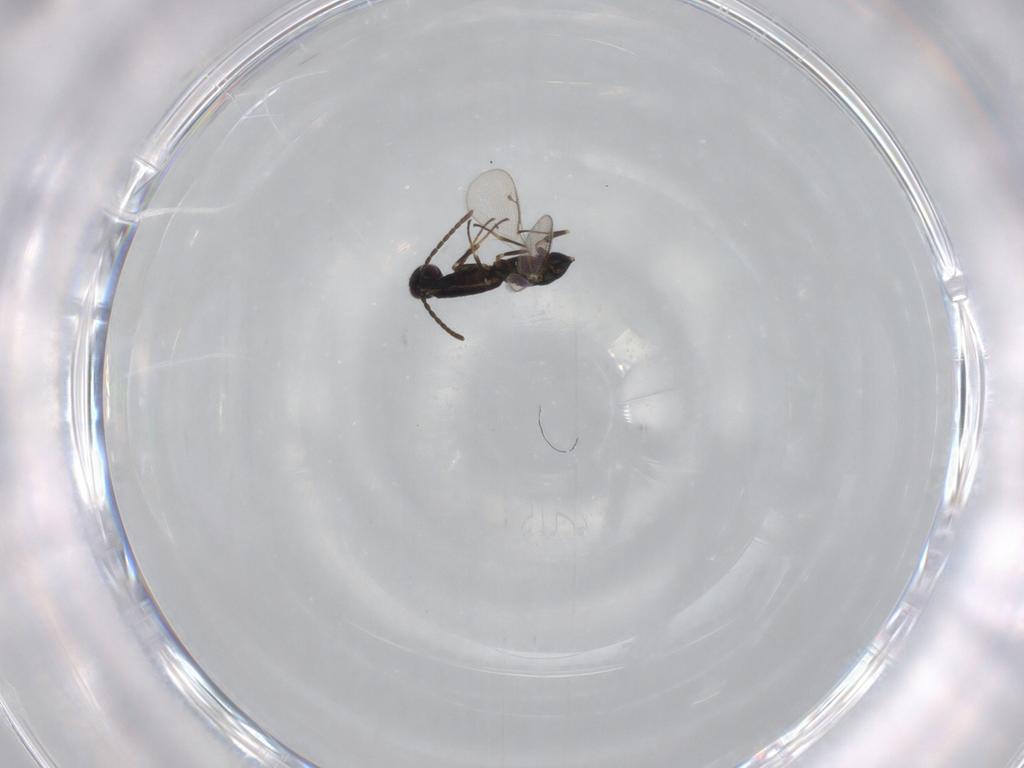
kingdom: Animalia
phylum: Arthropoda
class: Insecta
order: Hymenoptera
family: Eupelmidae
